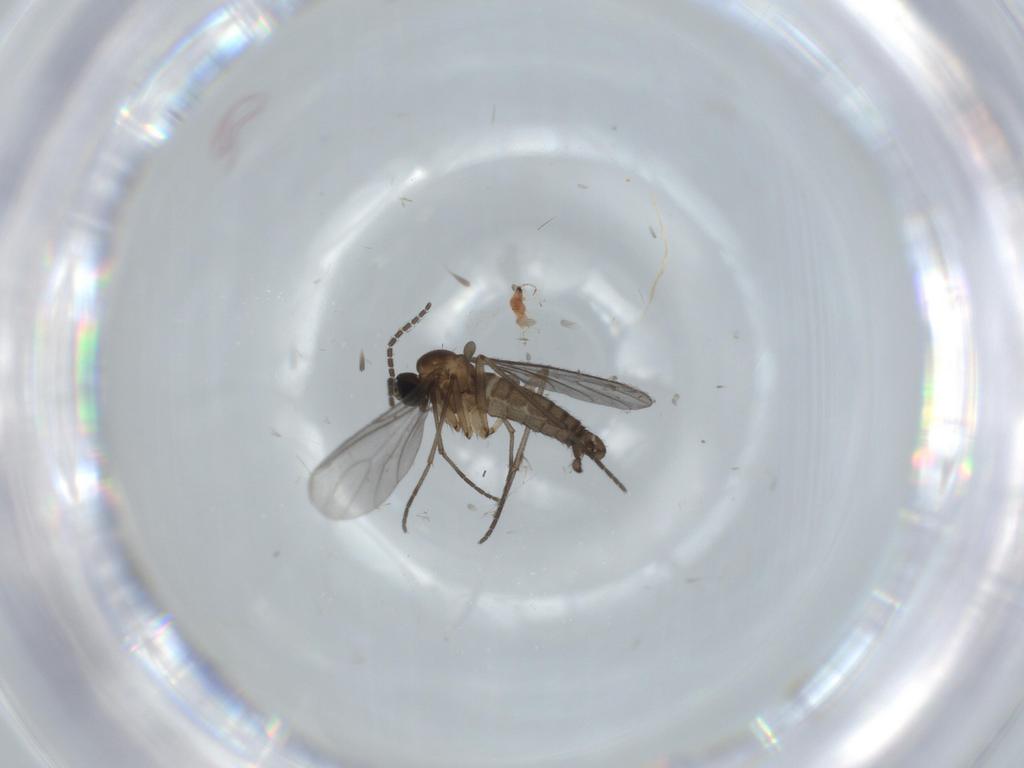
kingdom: Animalia
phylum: Arthropoda
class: Insecta
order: Diptera
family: Sciaridae
